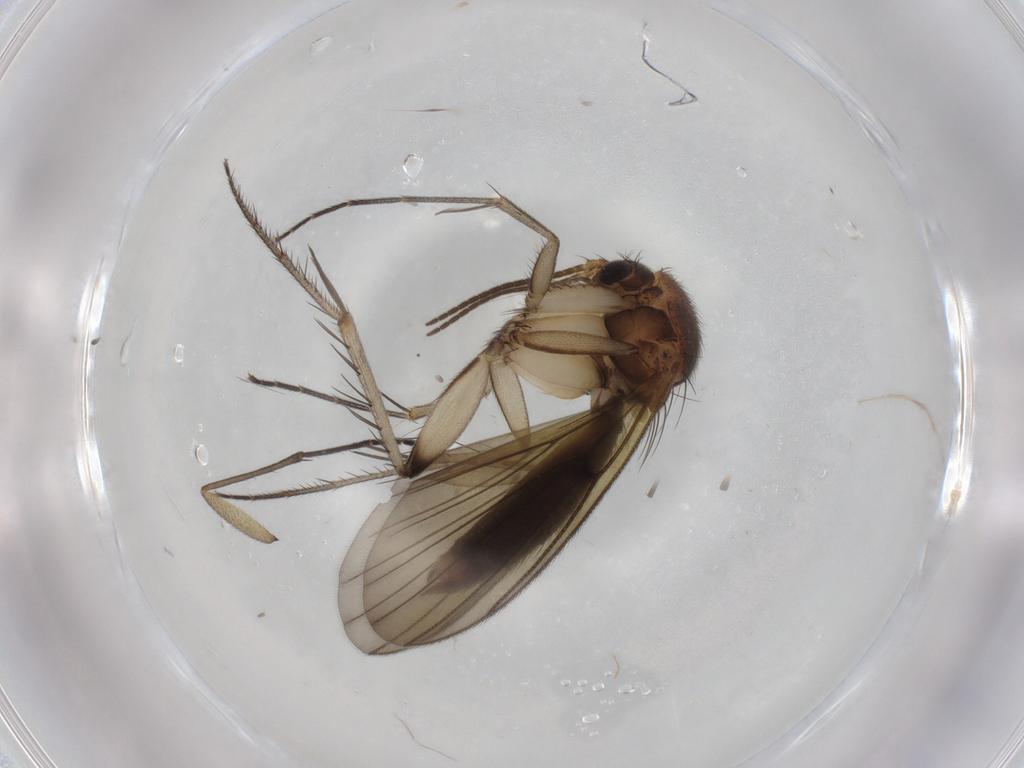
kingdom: Animalia
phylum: Arthropoda
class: Insecta
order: Diptera
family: Mycetophilidae
